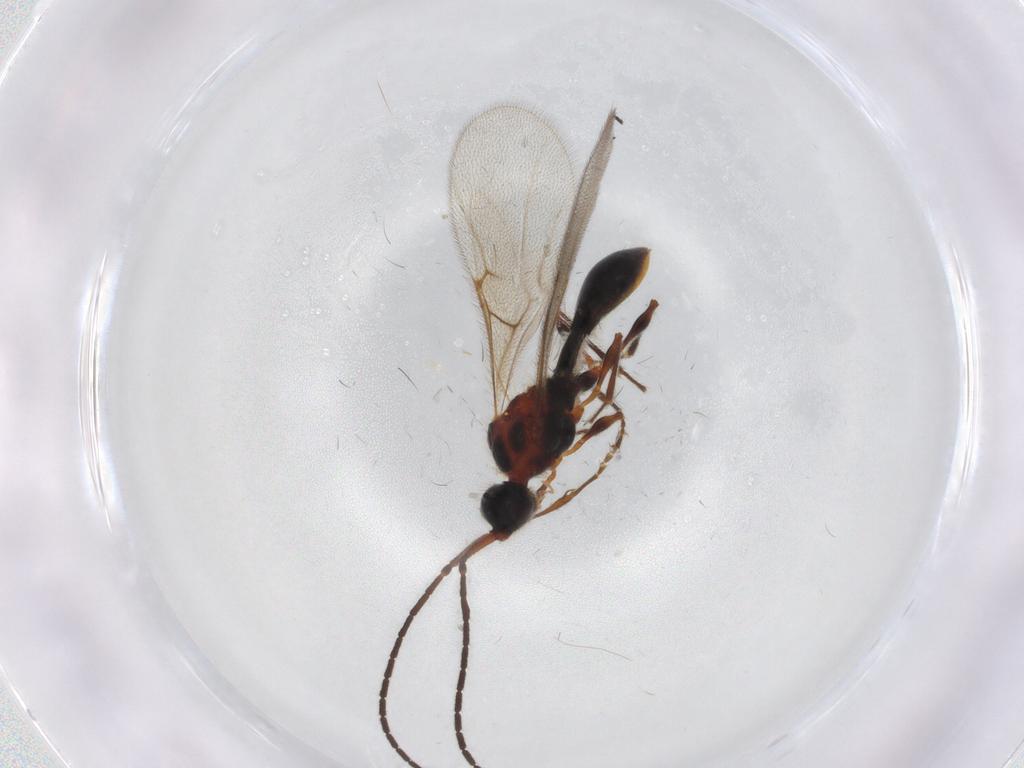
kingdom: Animalia
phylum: Arthropoda
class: Insecta
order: Hymenoptera
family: Diapriidae
